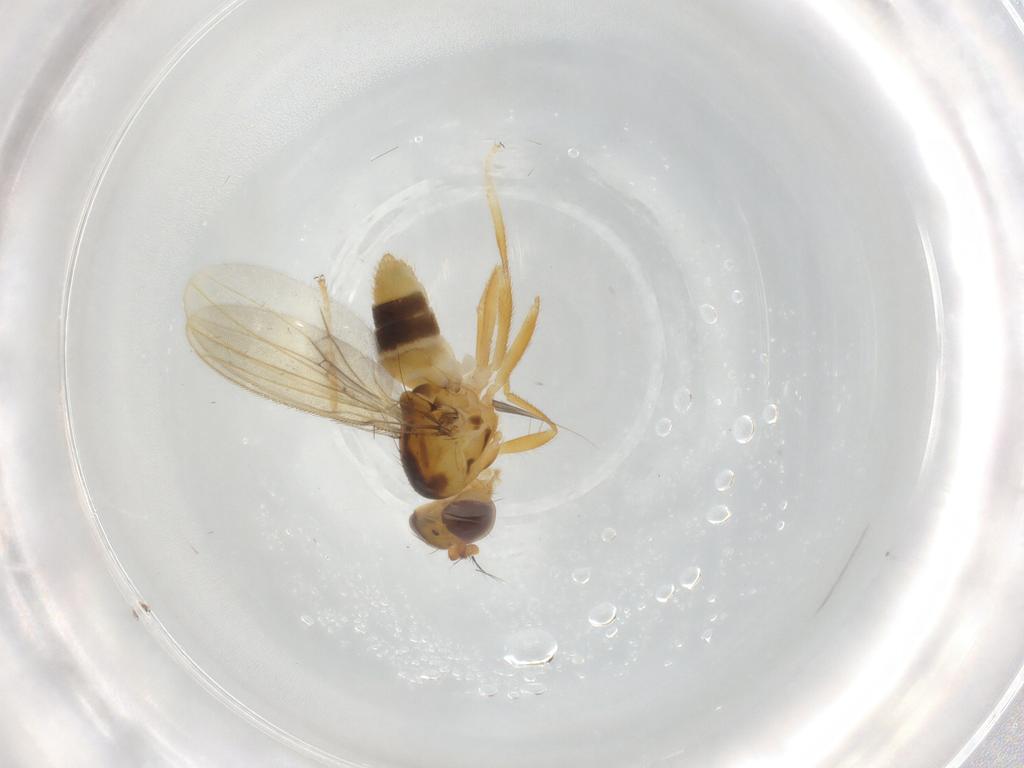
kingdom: Animalia
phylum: Arthropoda
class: Insecta
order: Diptera
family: Periscelididae
